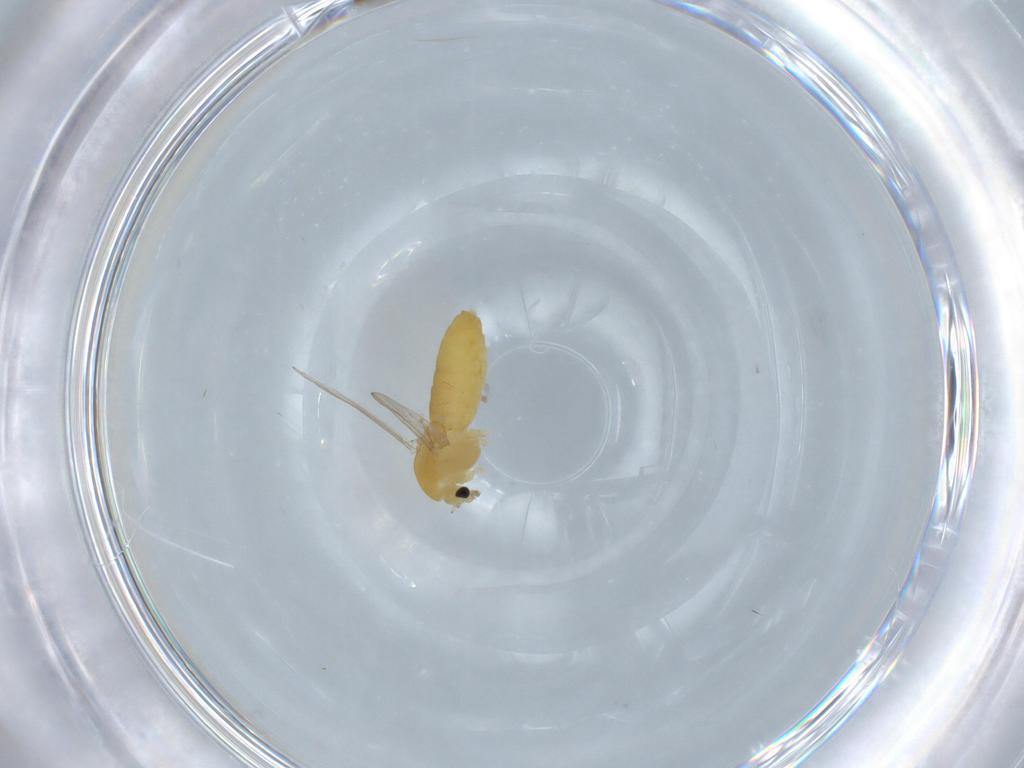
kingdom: Animalia
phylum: Arthropoda
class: Insecta
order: Diptera
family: Chironomidae
